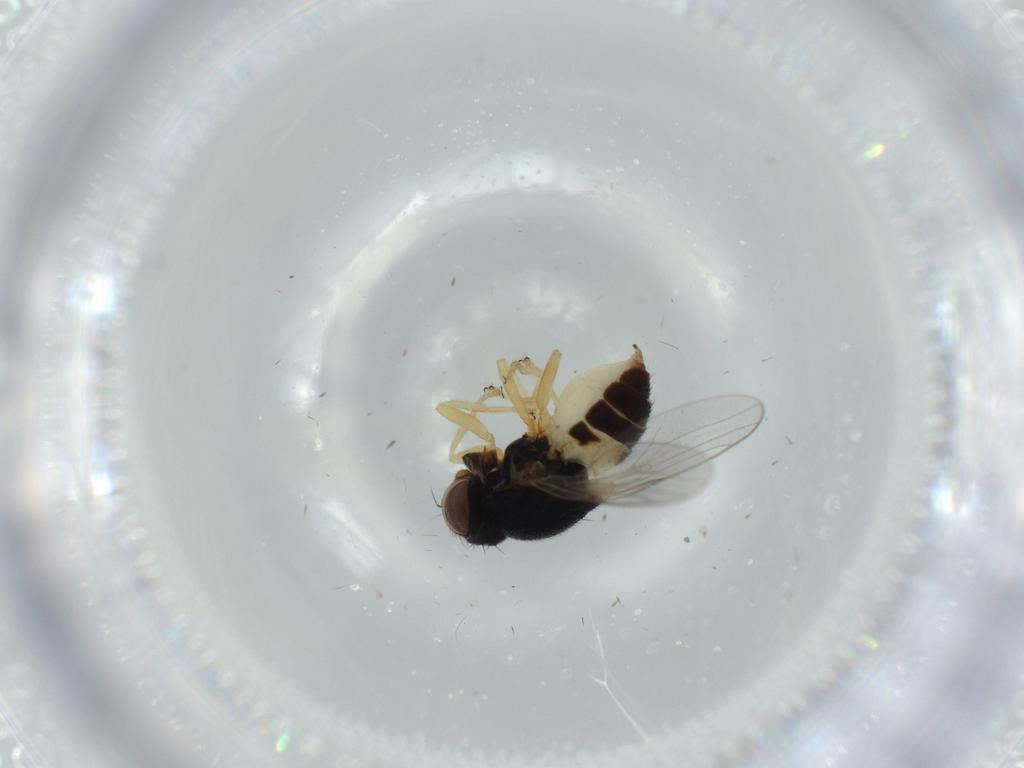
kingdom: Animalia
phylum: Arthropoda
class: Insecta
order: Diptera
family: Chloropidae
